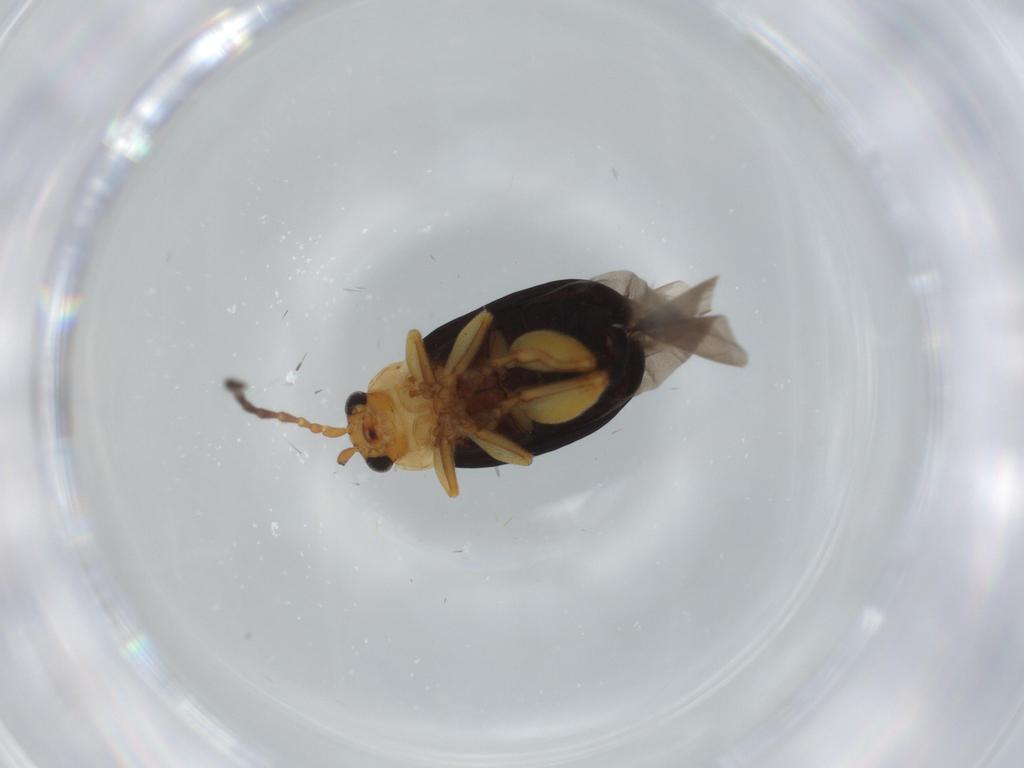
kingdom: Animalia
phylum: Arthropoda
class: Insecta
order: Coleoptera
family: Chrysomelidae
